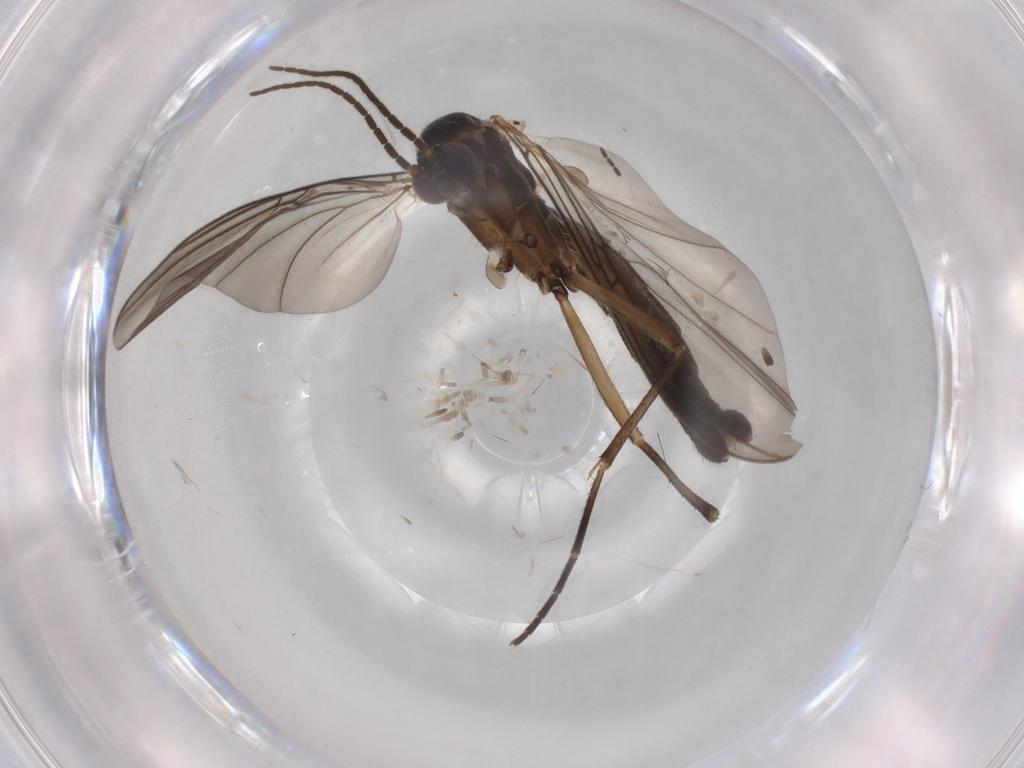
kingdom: Animalia
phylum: Arthropoda
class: Insecta
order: Diptera
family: Mycetophilidae
